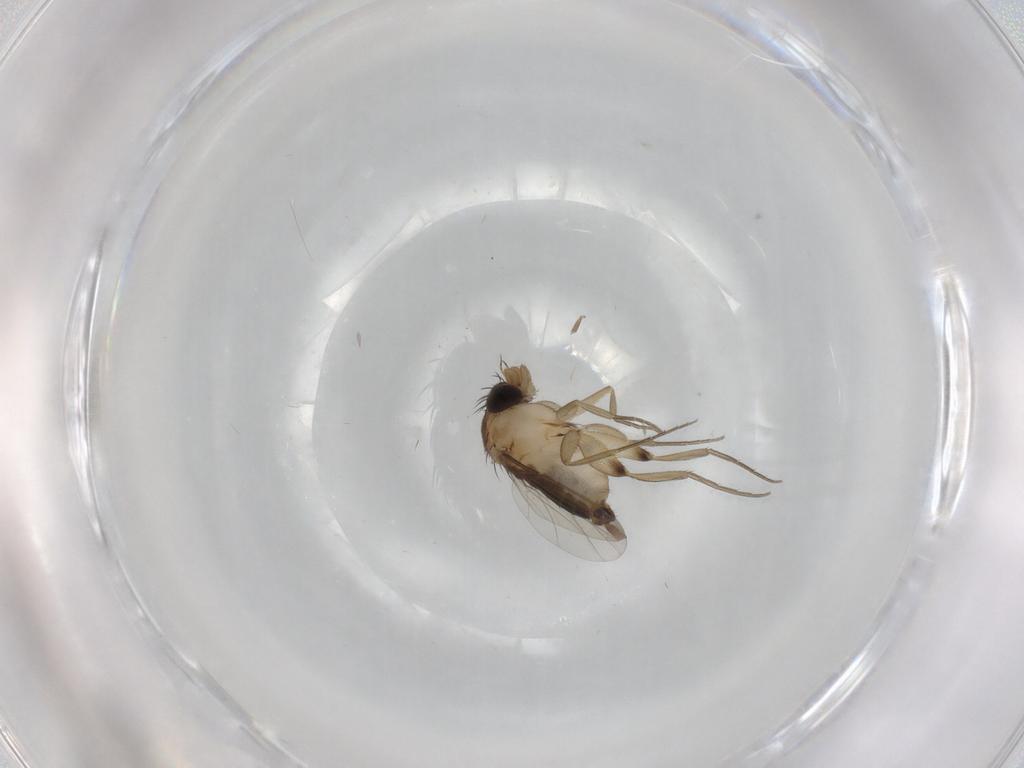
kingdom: Animalia
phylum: Arthropoda
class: Insecta
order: Diptera
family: Phoridae
